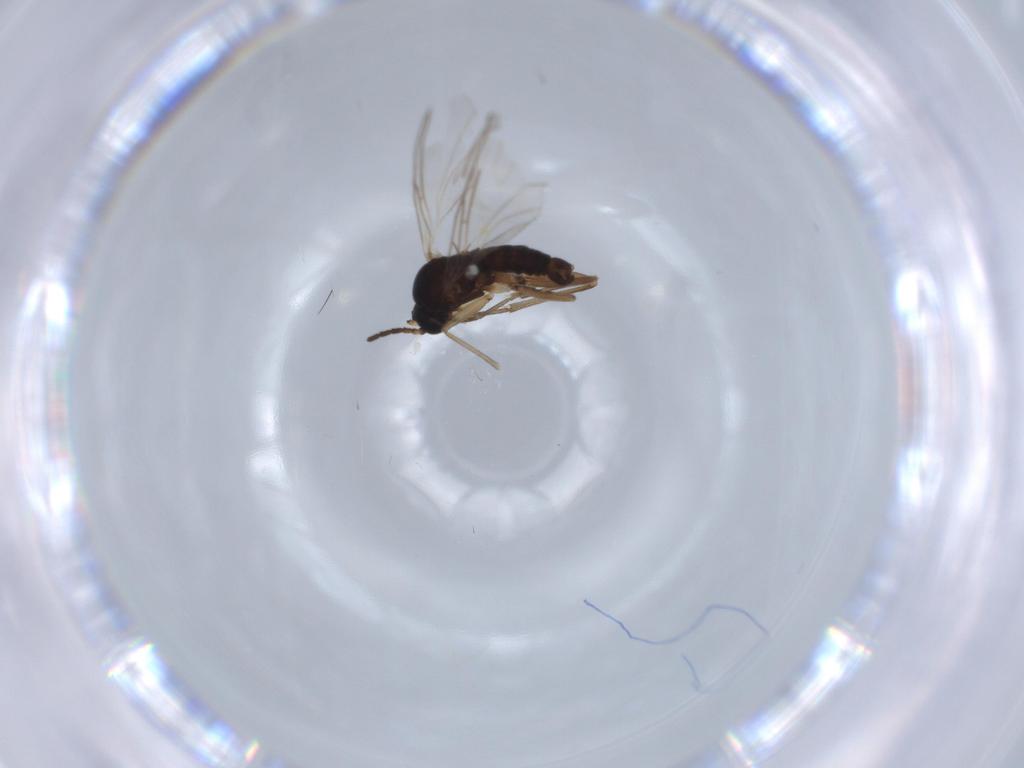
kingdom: Animalia
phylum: Arthropoda
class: Insecta
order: Diptera
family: Sciaridae
